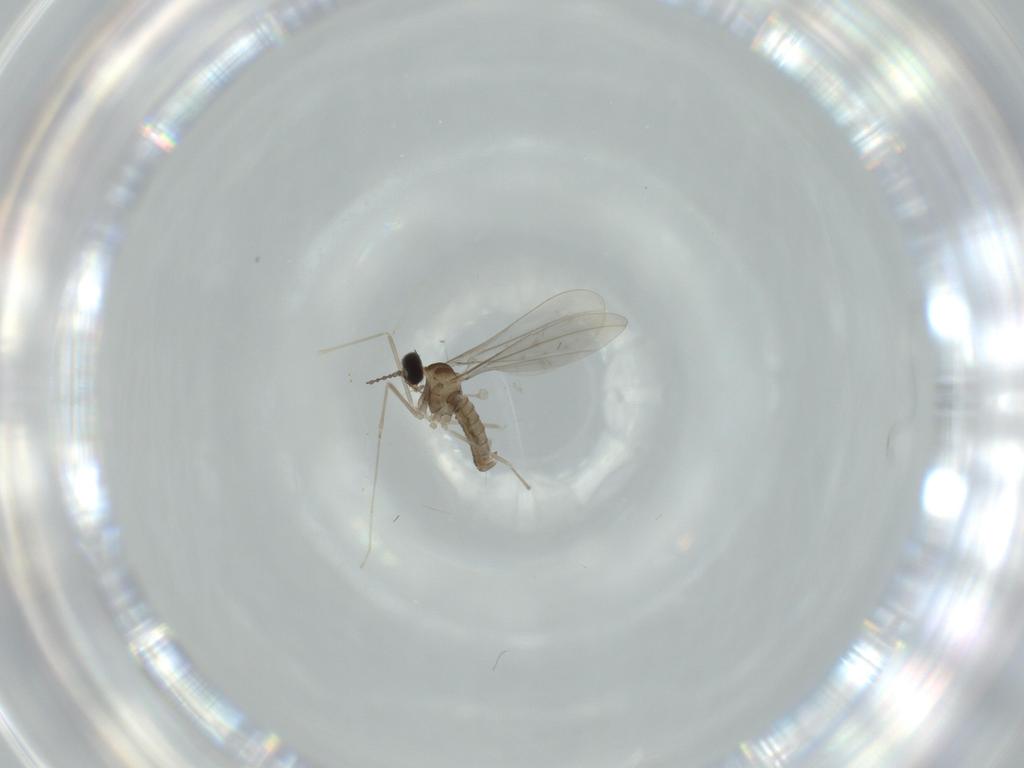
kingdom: Animalia
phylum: Arthropoda
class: Insecta
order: Diptera
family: Cecidomyiidae
